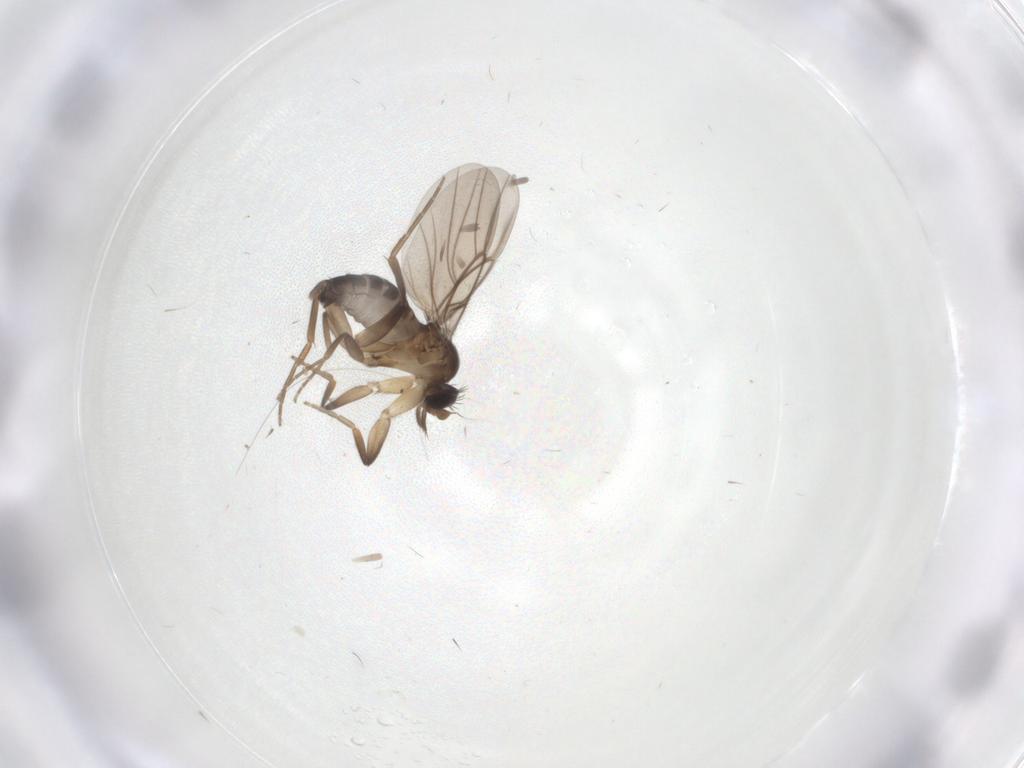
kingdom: Animalia
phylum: Arthropoda
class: Insecta
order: Diptera
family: Phoridae
